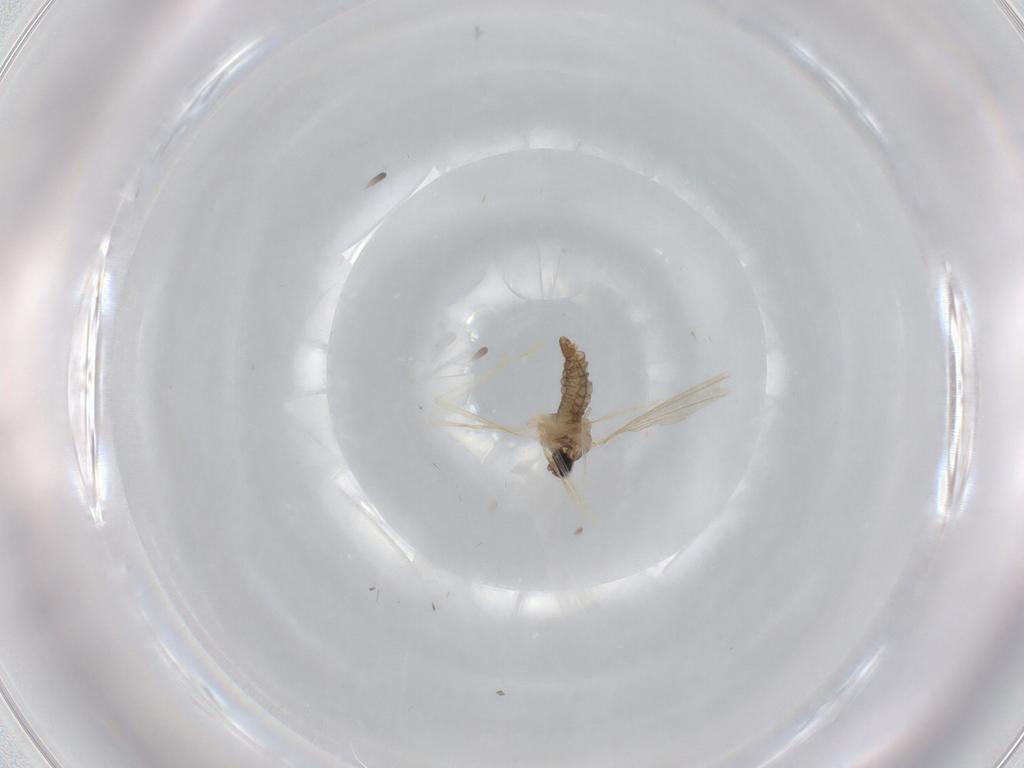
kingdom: Animalia
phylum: Arthropoda
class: Insecta
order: Diptera
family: Cecidomyiidae
